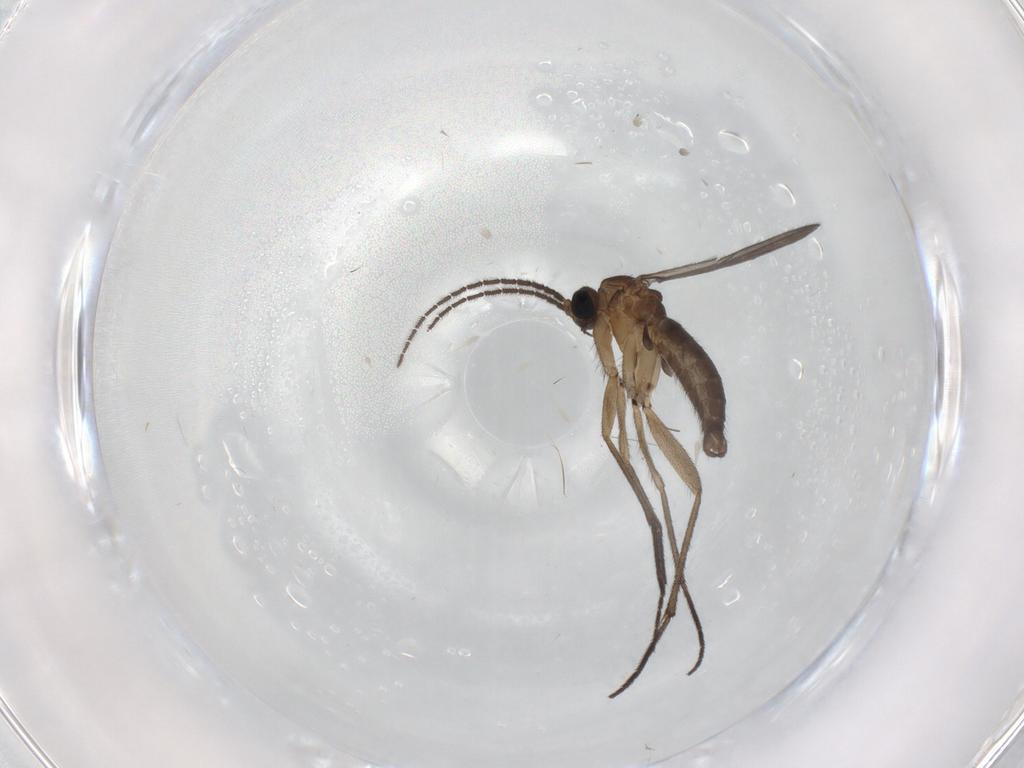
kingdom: Animalia
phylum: Arthropoda
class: Insecta
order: Diptera
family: Sciaridae
